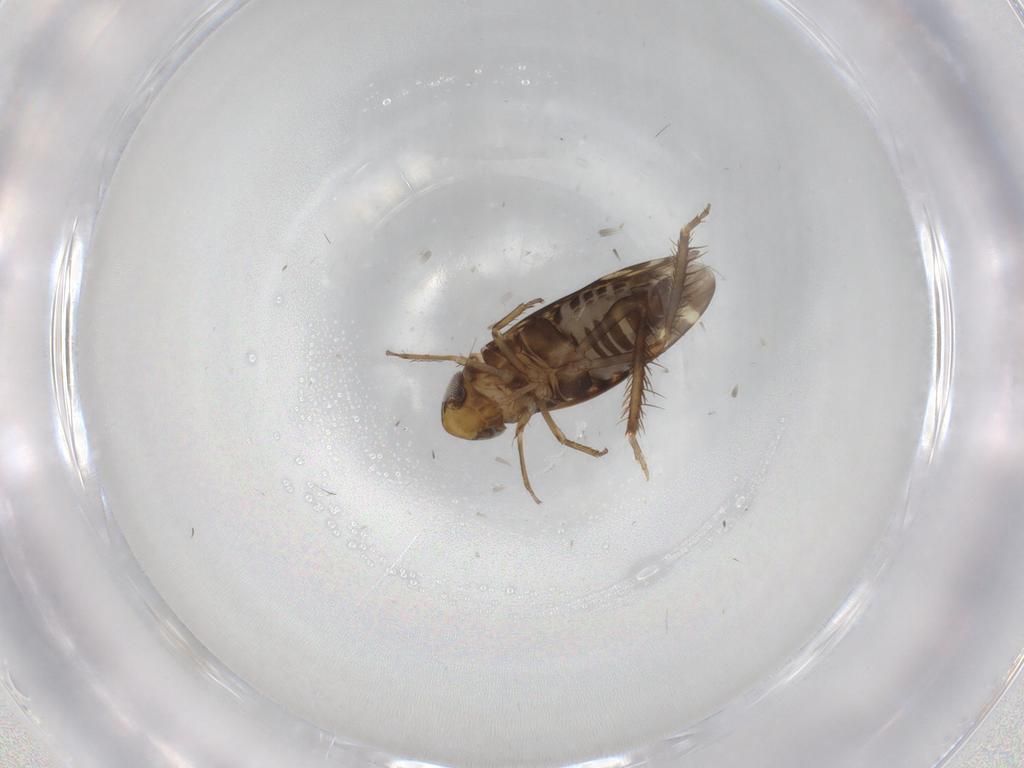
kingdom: Animalia
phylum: Arthropoda
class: Insecta
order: Hemiptera
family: Cicadellidae
